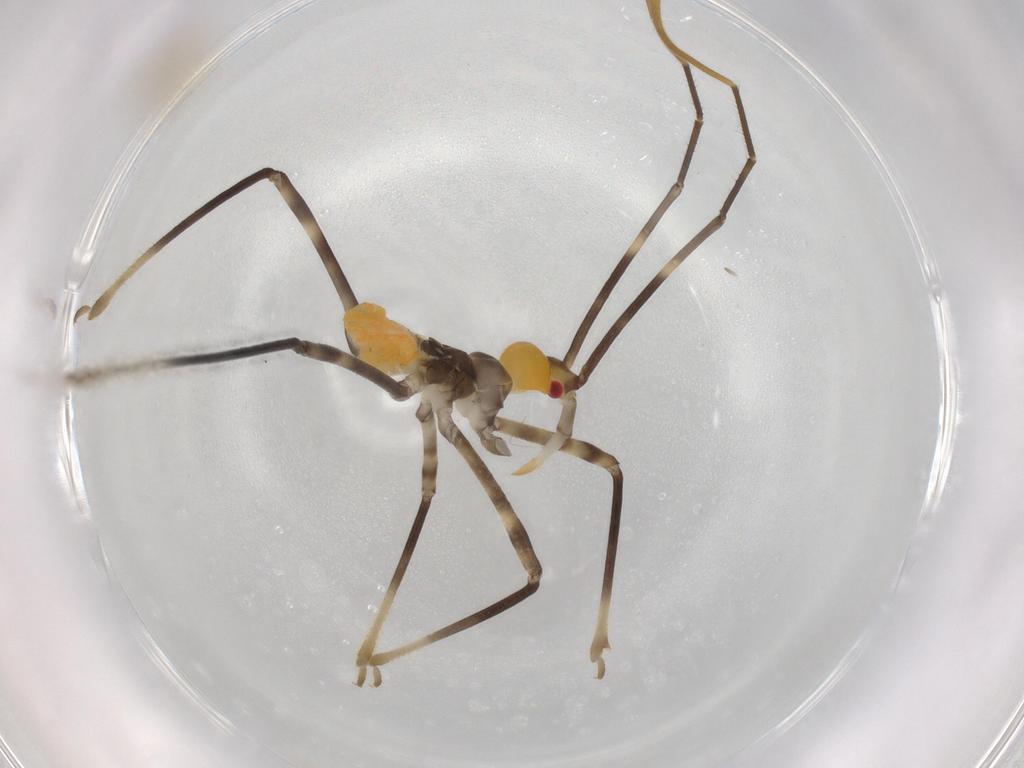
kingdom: Animalia
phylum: Arthropoda
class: Insecta
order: Hemiptera
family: Reduviidae
